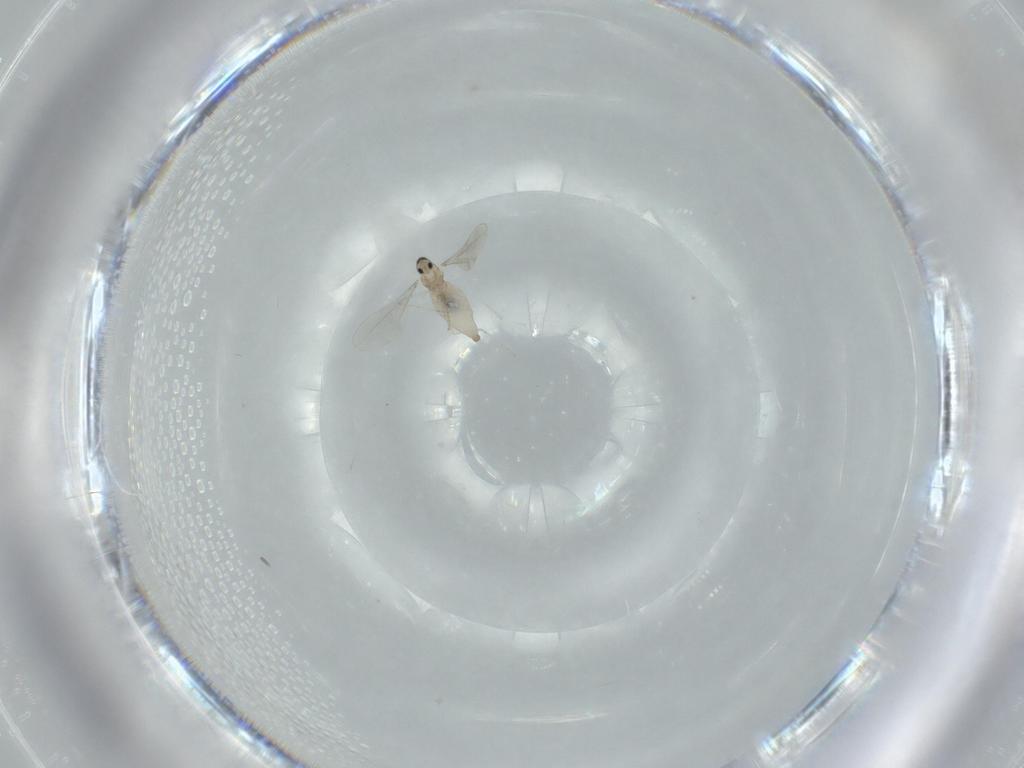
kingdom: Animalia
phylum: Arthropoda
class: Insecta
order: Diptera
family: Cecidomyiidae
